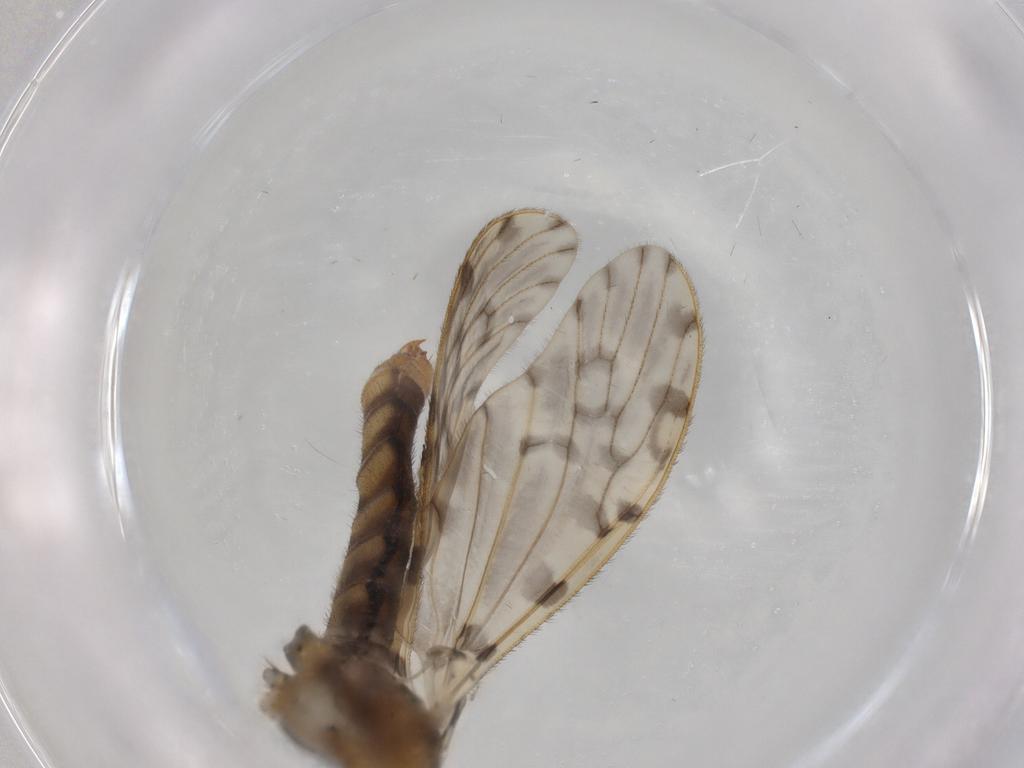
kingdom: Animalia
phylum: Arthropoda
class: Insecta
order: Diptera
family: Limoniidae
